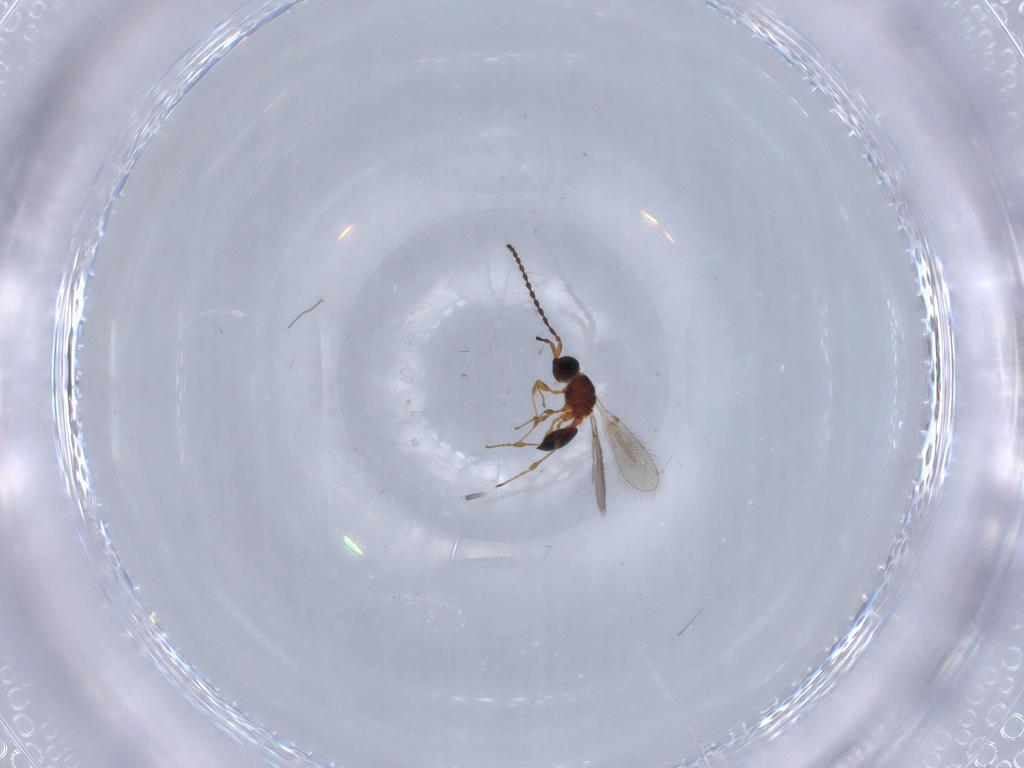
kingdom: Animalia
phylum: Arthropoda
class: Insecta
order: Hymenoptera
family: Diapriidae
